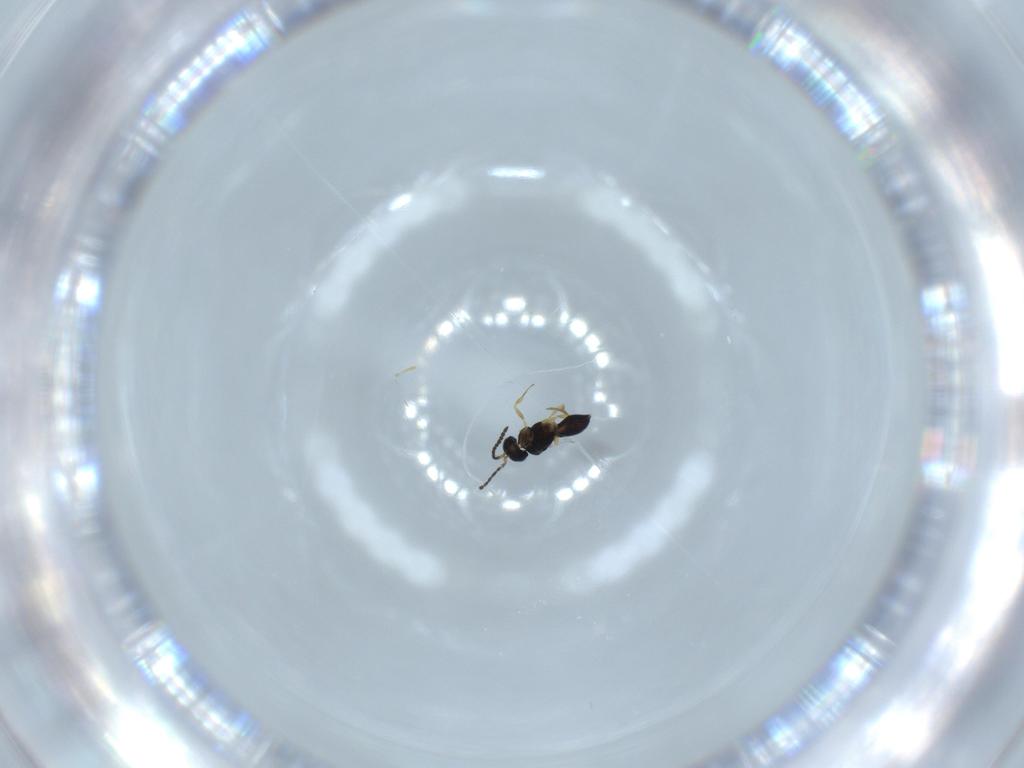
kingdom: Animalia
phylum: Arthropoda
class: Insecta
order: Hymenoptera
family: Scelionidae
